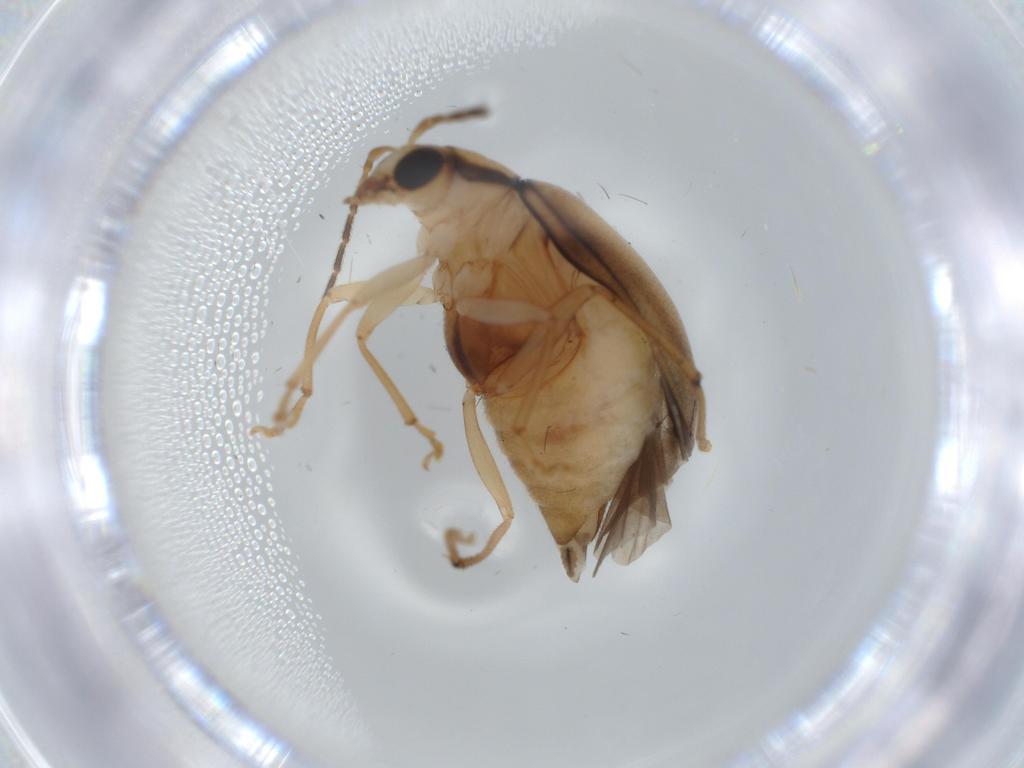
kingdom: Animalia
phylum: Arthropoda
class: Insecta
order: Coleoptera
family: Chrysomelidae
